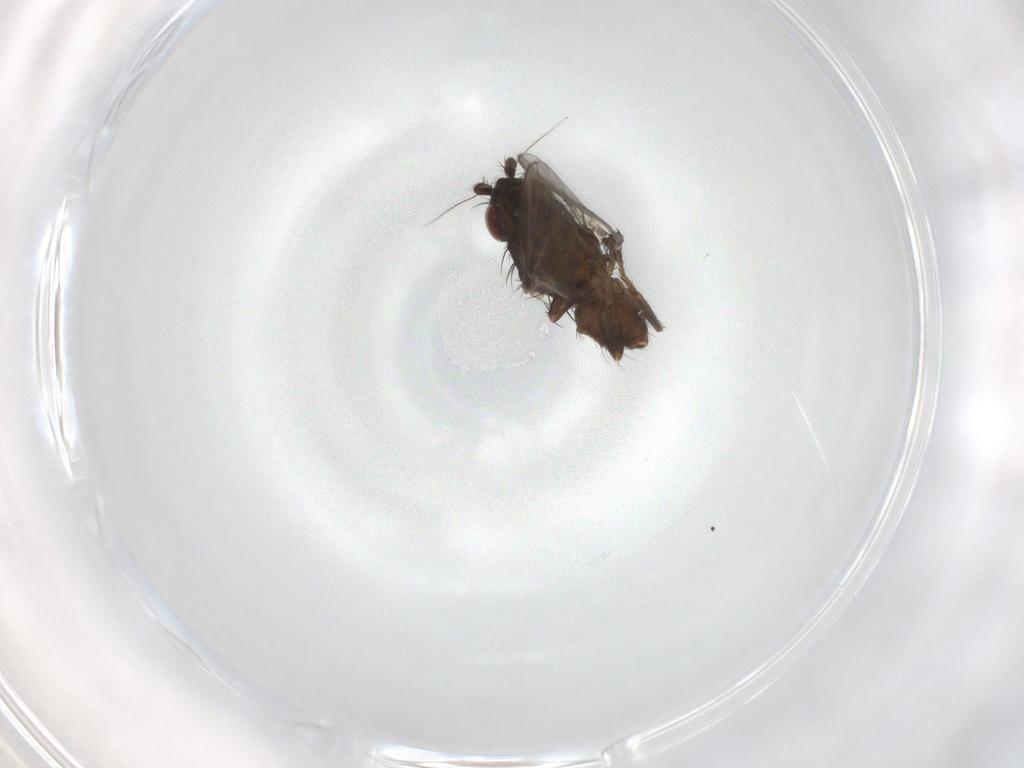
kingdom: Animalia
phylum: Arthropoda
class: Insecta
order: Diptera
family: Sphaeroceridae
